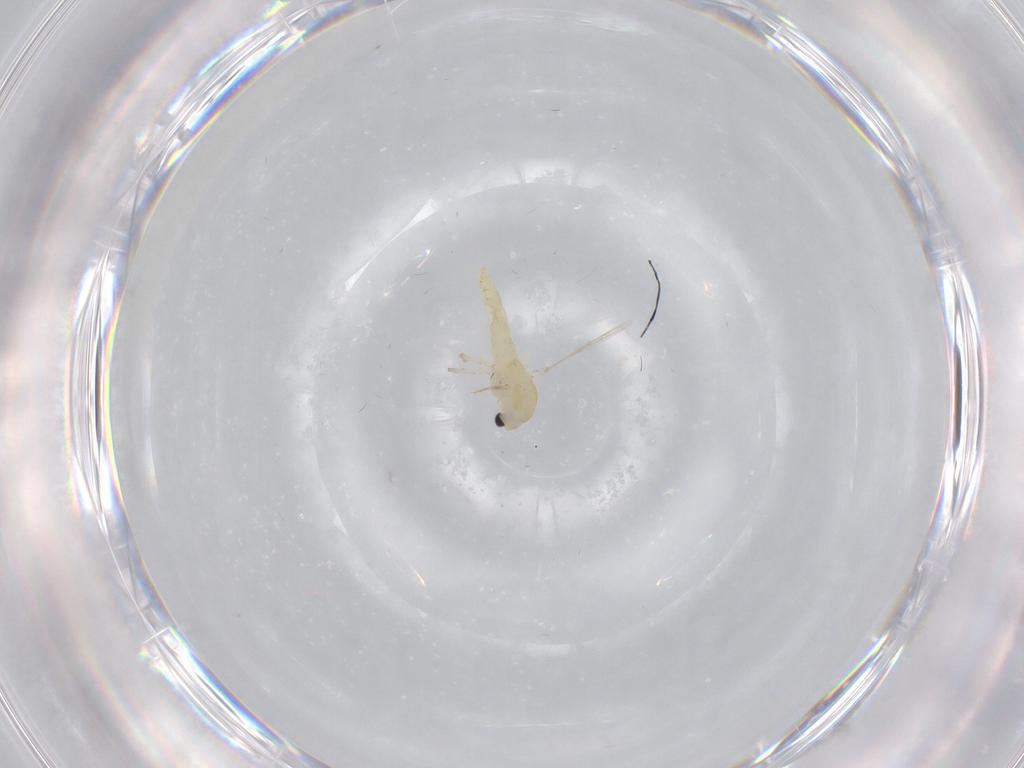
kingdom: Animalia
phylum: Arthropoda
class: Insecta
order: Diptera
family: Chironomidae
